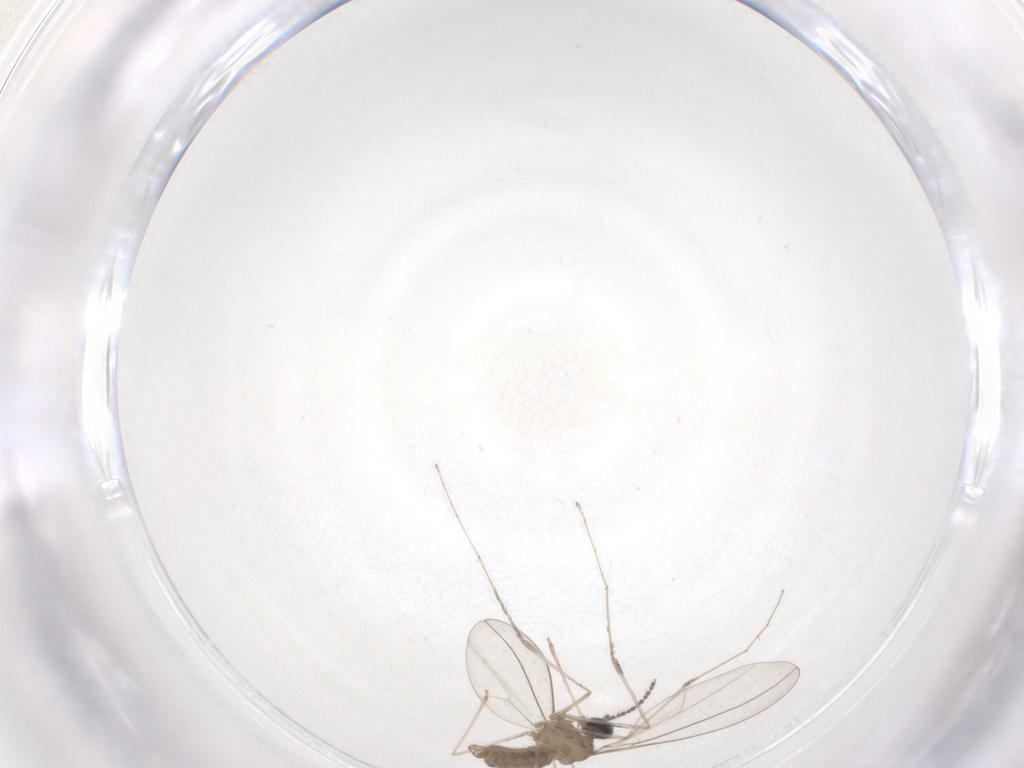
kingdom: Animalia
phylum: Arthropoda
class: Insecta
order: Diptera
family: Cecidomyiidae
